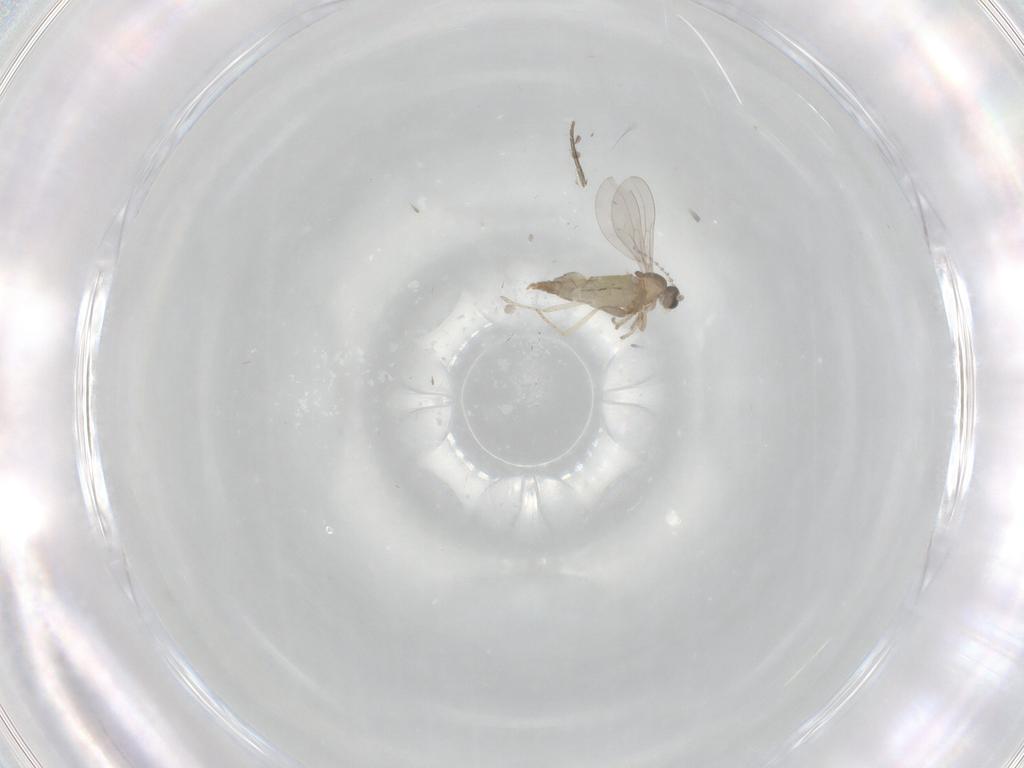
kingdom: Animalia
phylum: Arthropoda
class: Insecta
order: Diptera
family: Cecidomyiidae
